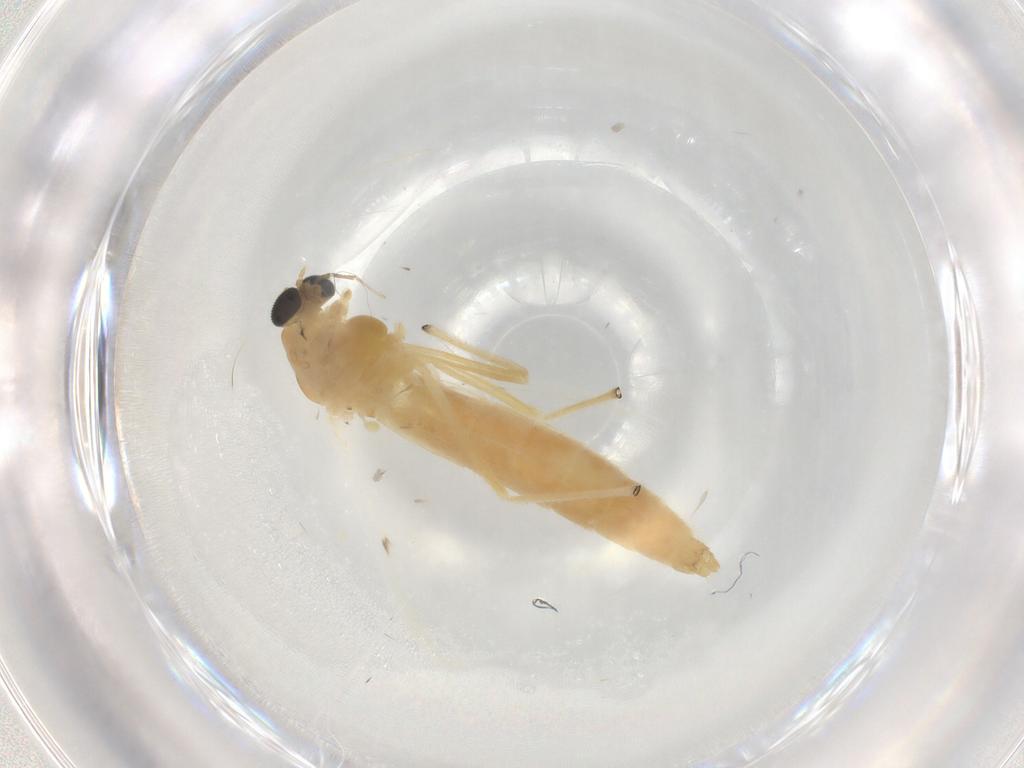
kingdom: Animalia
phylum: Arthropoda
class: Insecta
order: Diptera
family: Chironomidae
